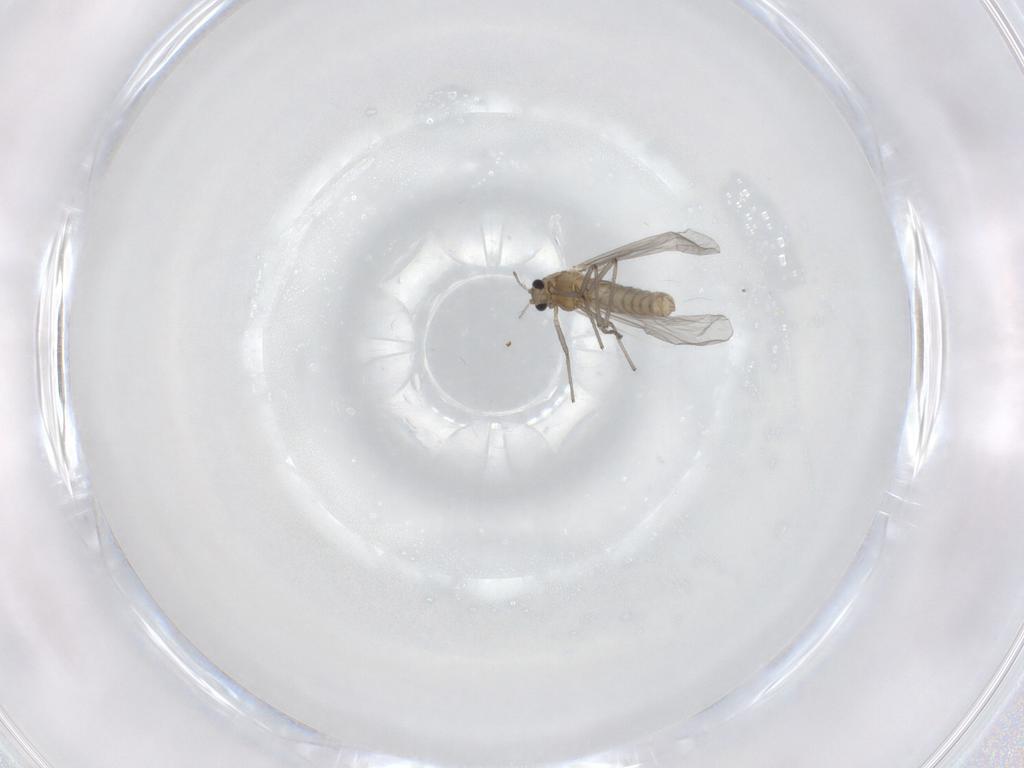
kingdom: Animalia
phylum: Arthropoda
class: Insecta
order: Diptera
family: Chironomidae
